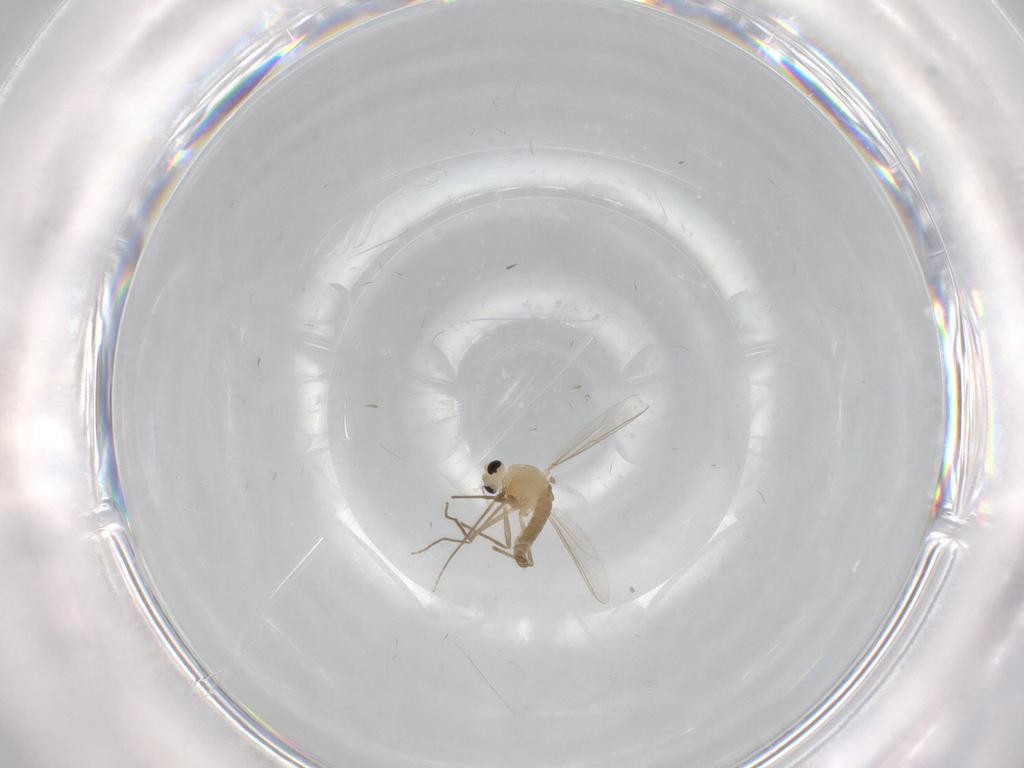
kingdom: Animalia
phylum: Arthropoda
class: Insecta
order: Diptera
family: Chironomidae
